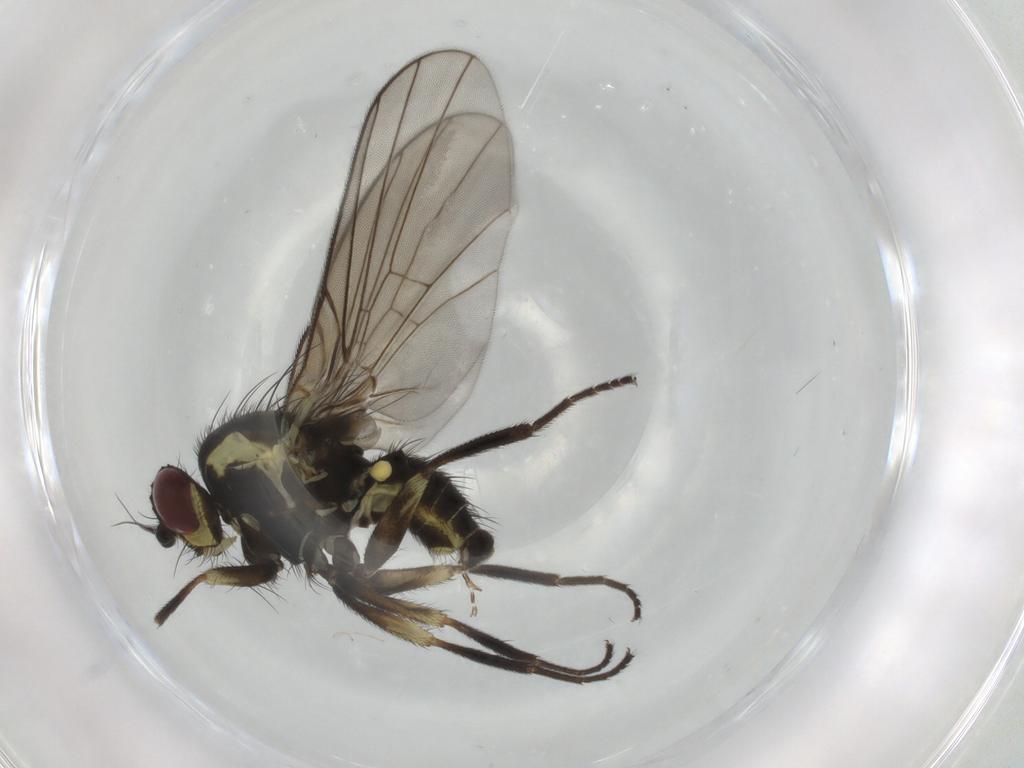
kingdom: Animalia
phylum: Arthropoda
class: Insecta
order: Diptera
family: Agromyzidae
